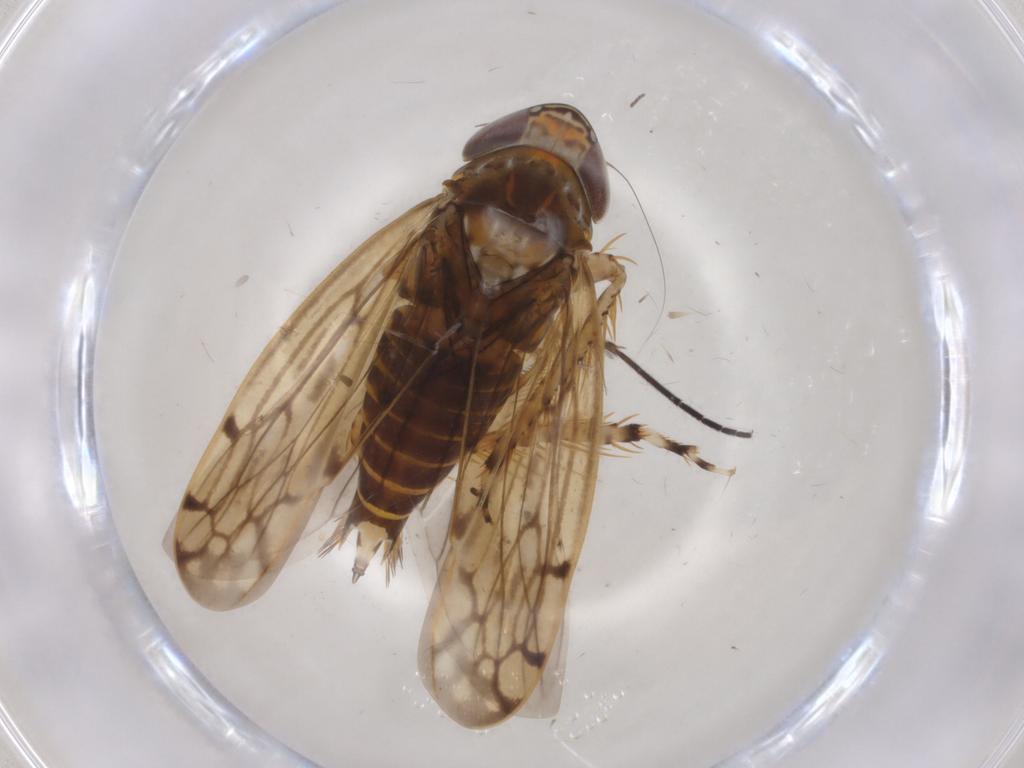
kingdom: Animalia
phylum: Arthropoda
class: Insecta
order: Hemiptera
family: Cicadellidae
